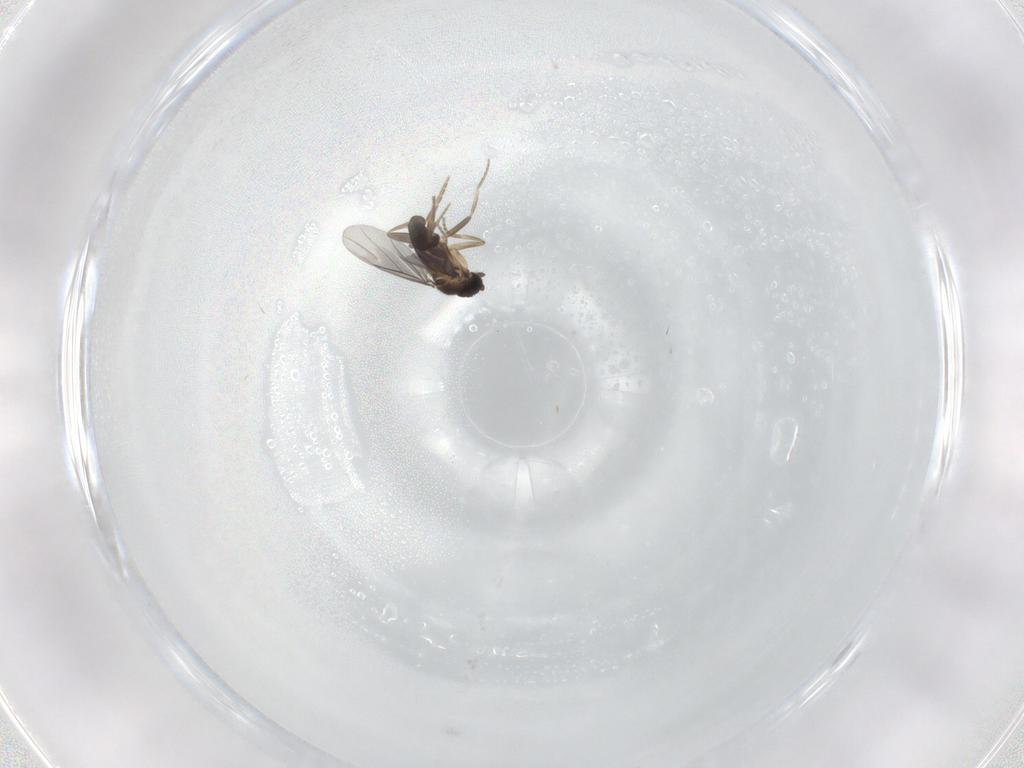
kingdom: Animalia
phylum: Arthropoda
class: Insecta
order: Diptera
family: Phoridae
